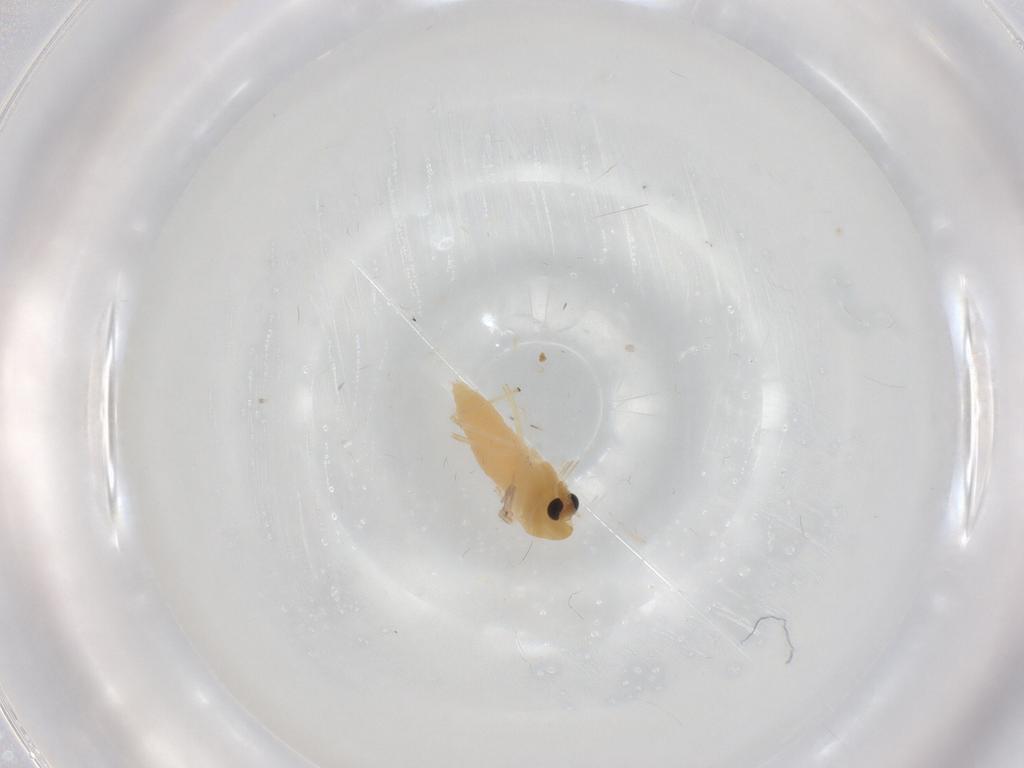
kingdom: Animalia
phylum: Arthropoda
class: Insecta
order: Diptera
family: Chironomidae
